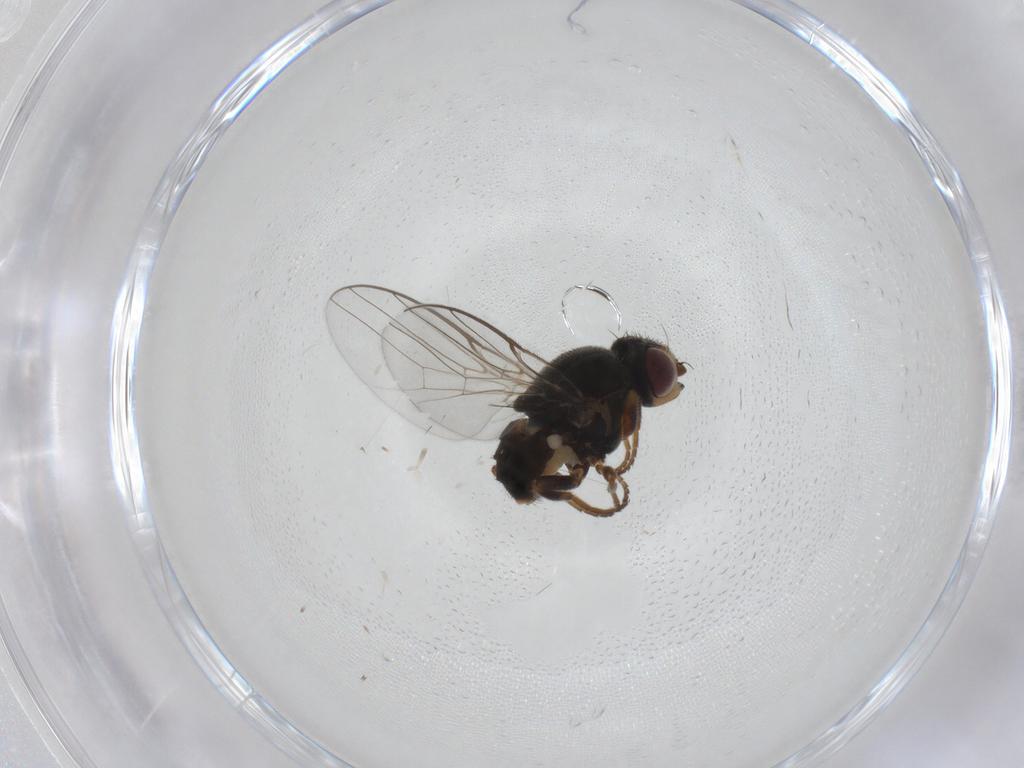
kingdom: Animalia
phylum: Arthropoda
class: Insecta
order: Diptera
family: Chloropidae
